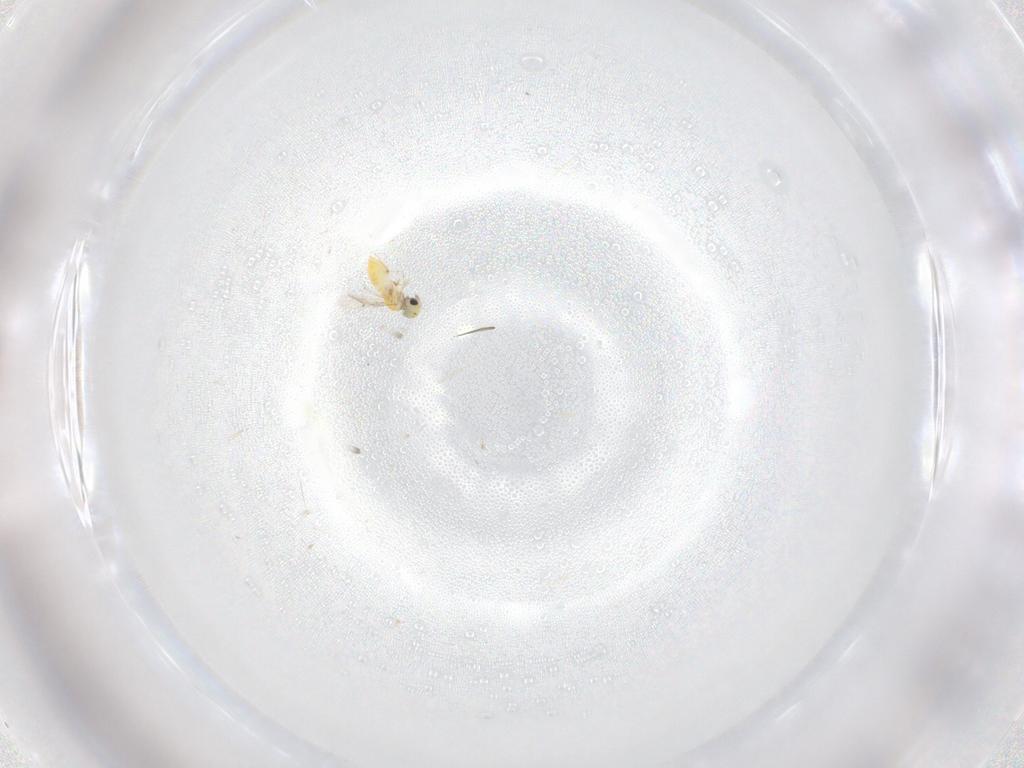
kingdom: Animalia
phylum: Arthropoda
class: Insecta
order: Hymenoptera
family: Trichogrammatidae
